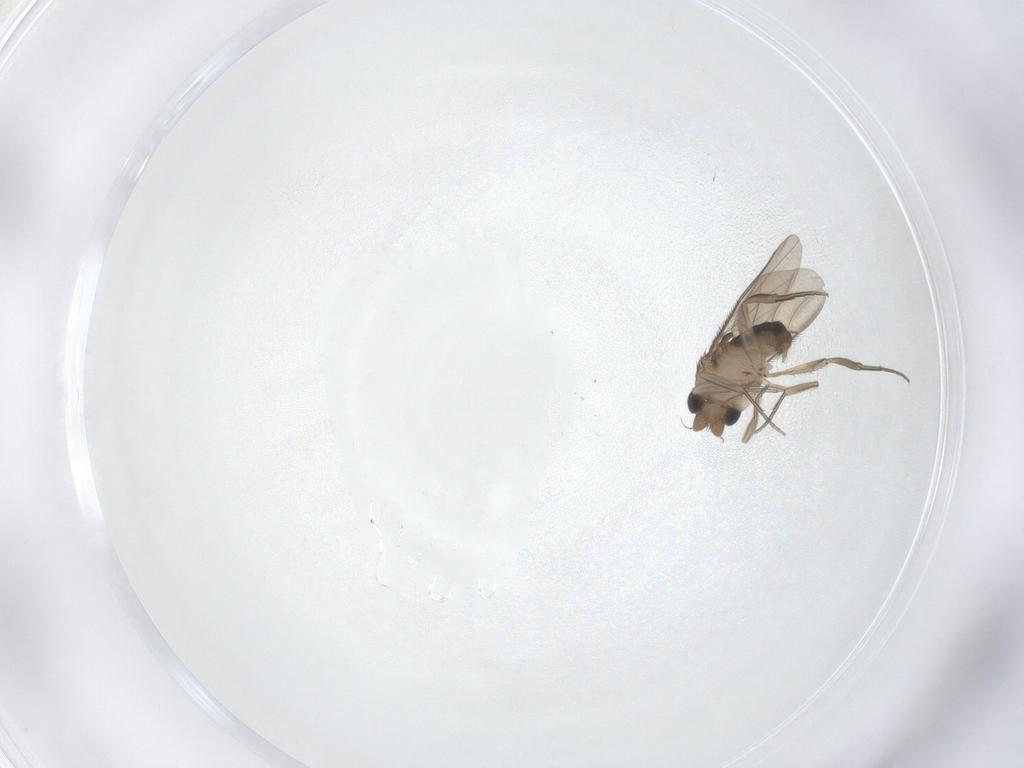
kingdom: Animalia
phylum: Arthropoda
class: Insecta
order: Diptera
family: Phoridae
